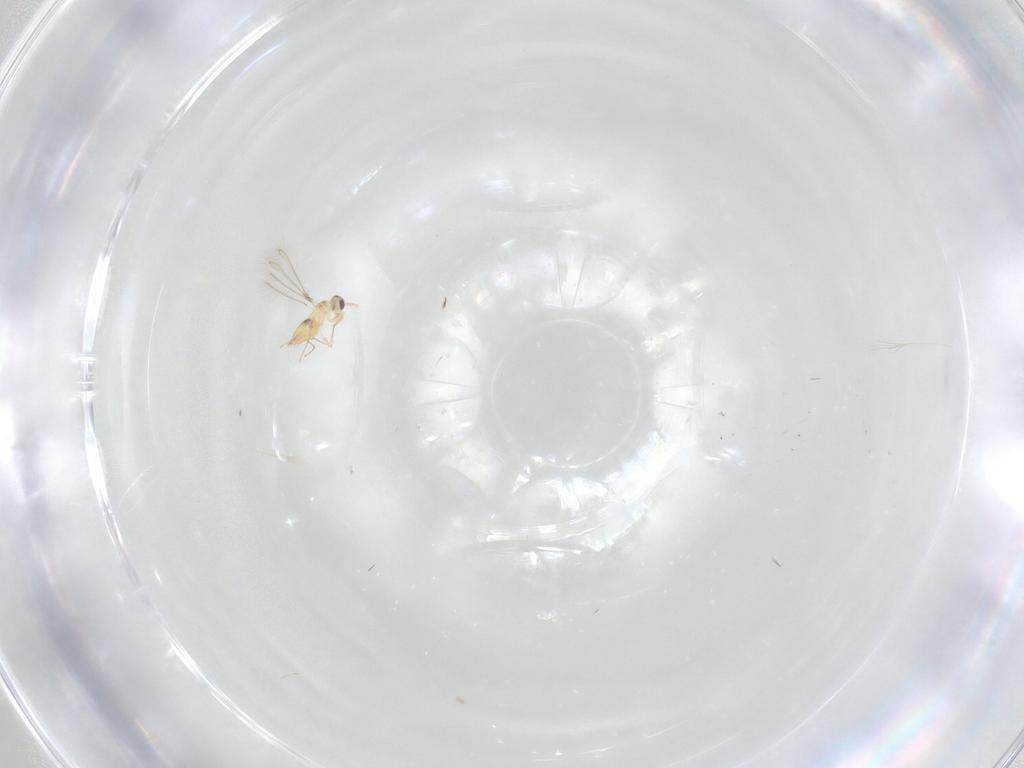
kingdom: Animalia
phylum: Arthropoda
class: Insecta
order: Hymenoptera
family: Mymaridae
